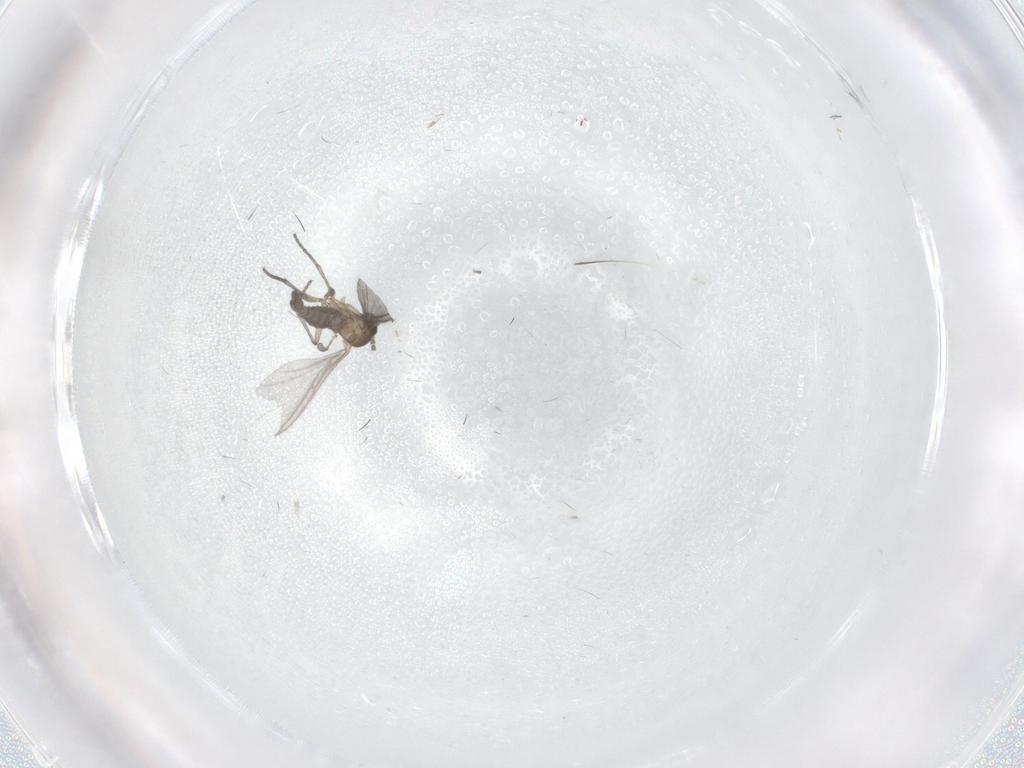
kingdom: Animalia
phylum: Arthropoda
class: Insecta
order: Diptera
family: Sciaridae
